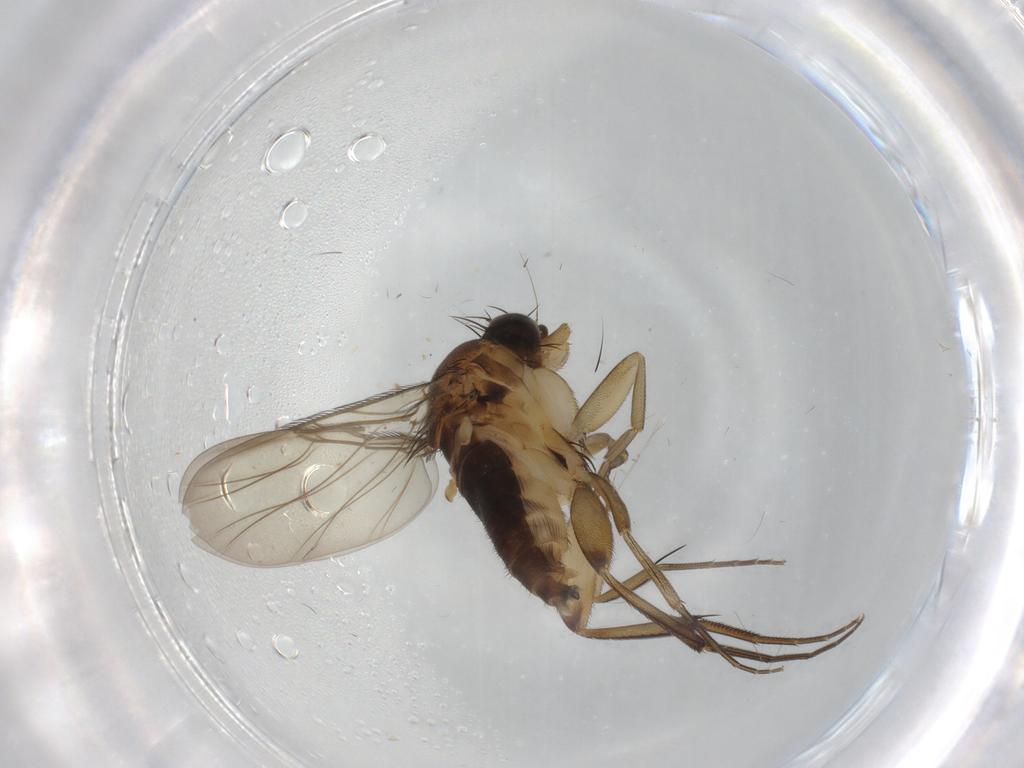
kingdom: Animalia
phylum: Arthropoda
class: Insecta
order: Diptera
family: Phoridae
